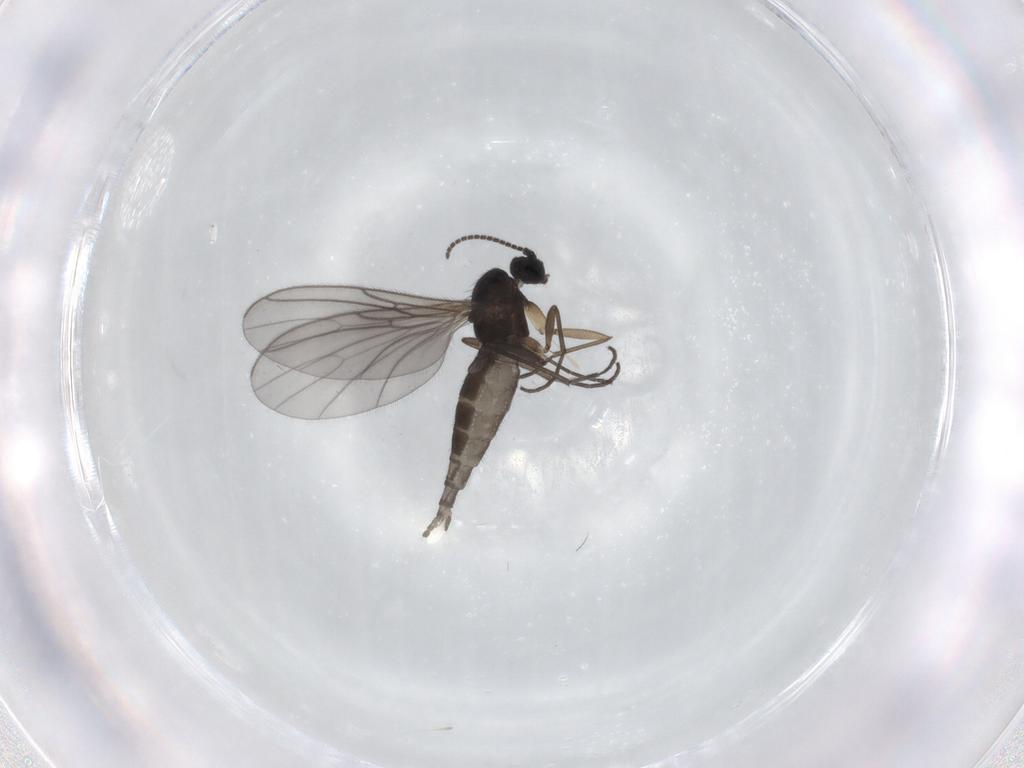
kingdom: Animalia
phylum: Arthropoda
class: Insecta
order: Diptera
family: Sciaridae
